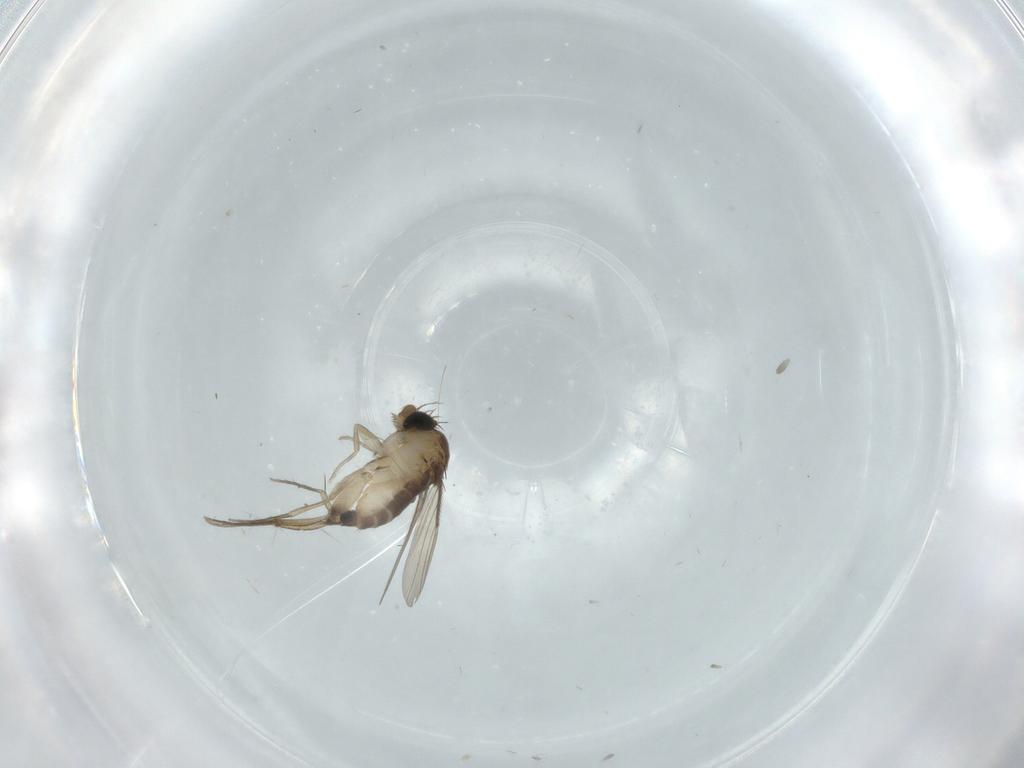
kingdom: Animalia
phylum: Arthropoda
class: Insecta
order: Diptera
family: Phoridae
